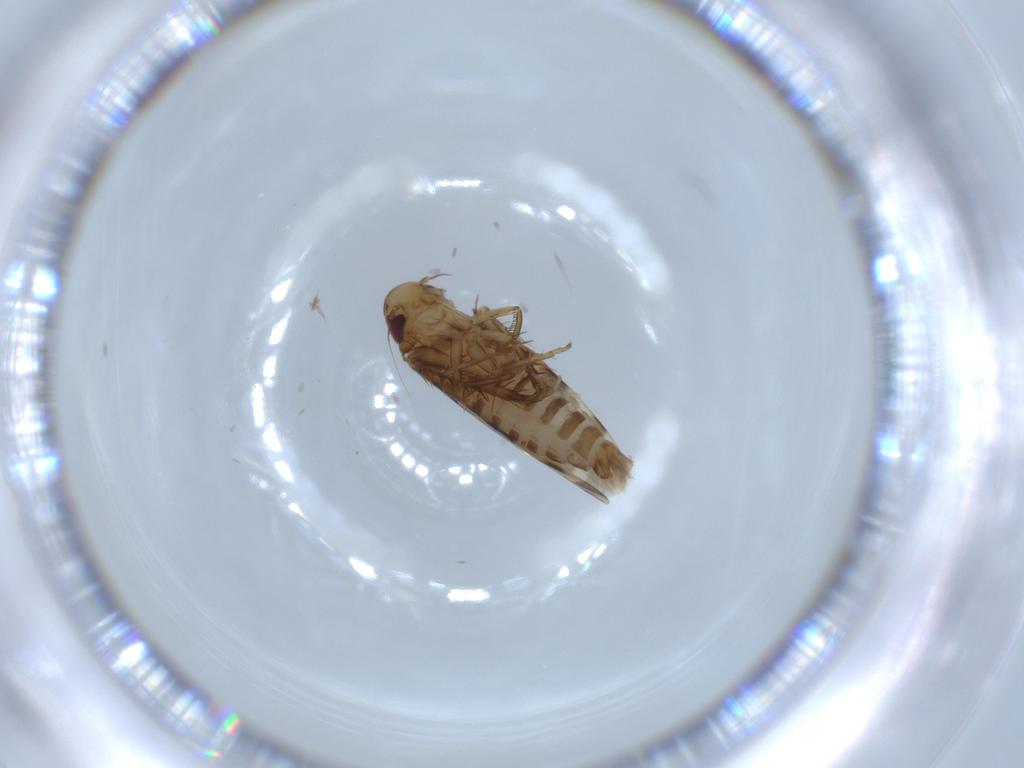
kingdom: Animalia
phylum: Arthropoda
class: Insecta
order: Hemiptera
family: Cicadellidae
